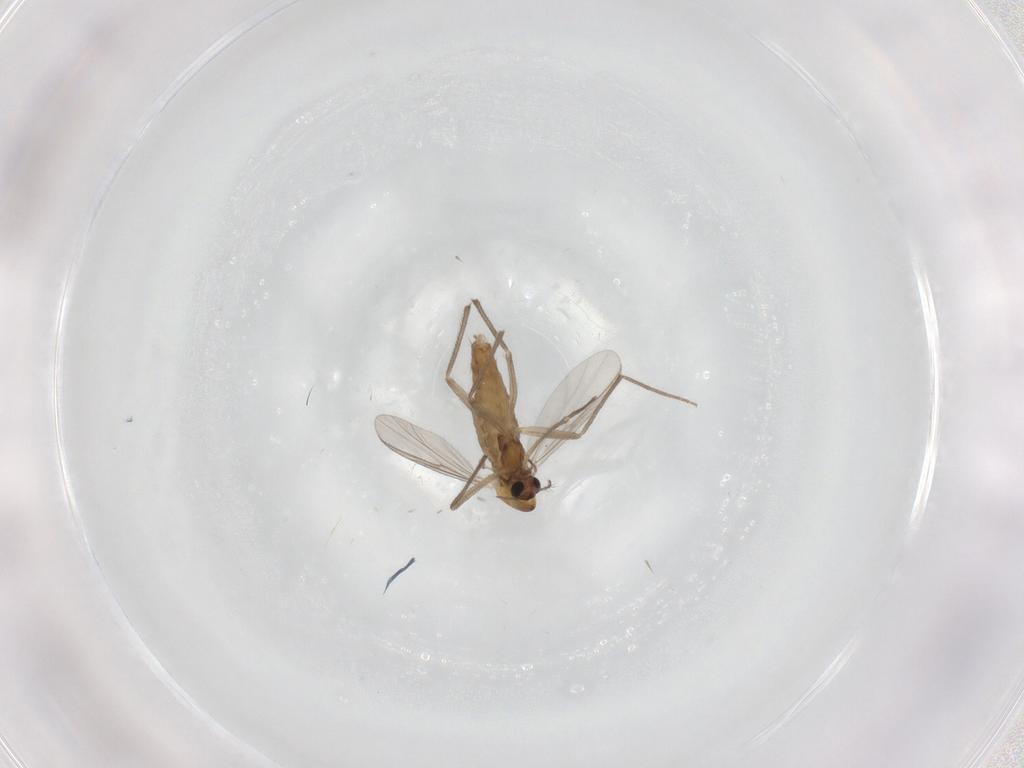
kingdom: Animalia
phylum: Arthropoda
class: Insecta
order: Diptera
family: Chironomidae
